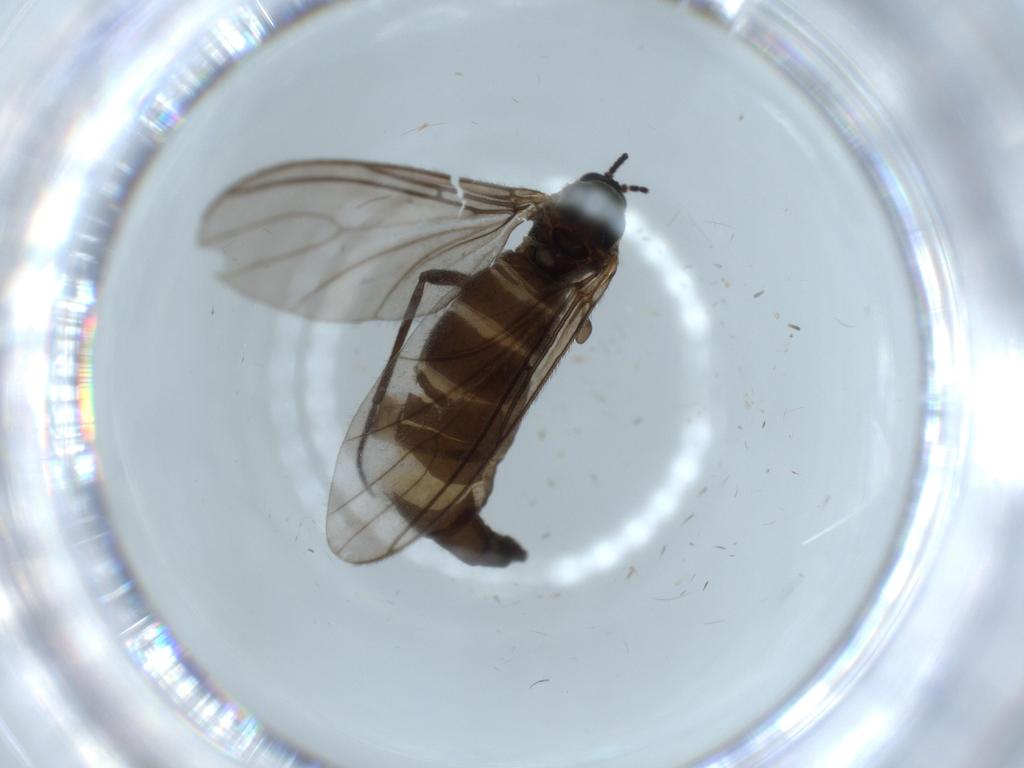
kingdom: Animalia
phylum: Arthropoda
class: Insecta
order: Diptera
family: Sciaridae
